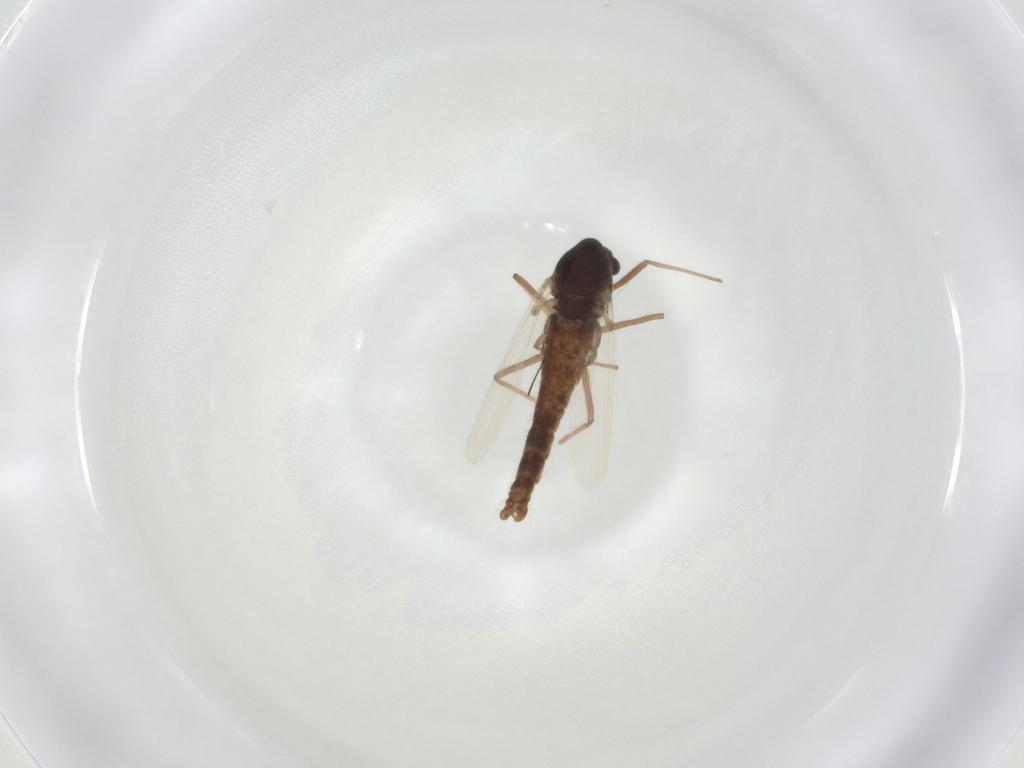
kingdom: Animalia
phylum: Arthropoda
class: Insecta
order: Diptera
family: Chironomidae
